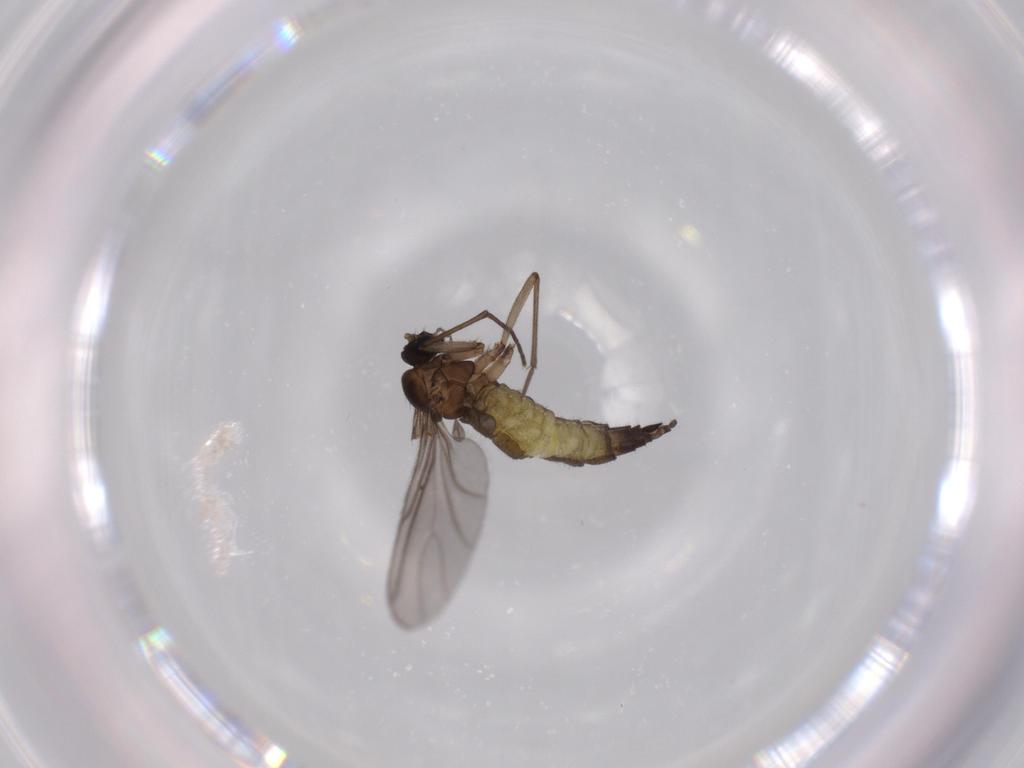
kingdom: Animalia
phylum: Arthropoda
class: Insecta
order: Diptera
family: Sciaridae
